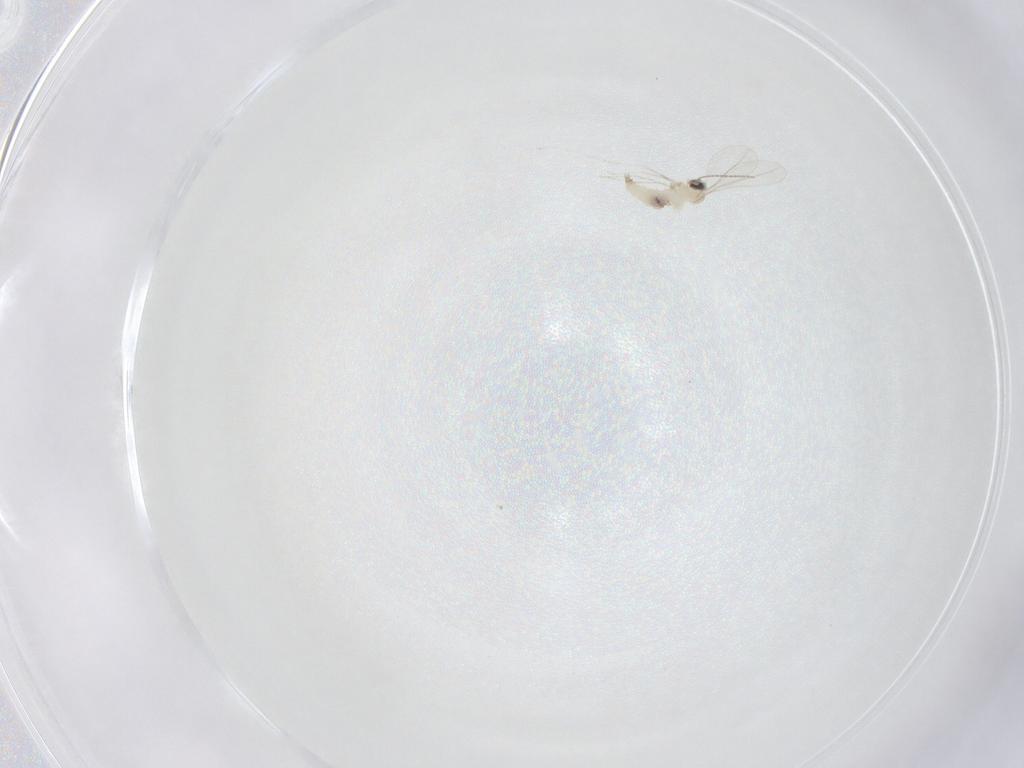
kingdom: Animalia
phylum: Arthropoda
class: Insecta
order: Diptera
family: Cecidomyiidae
